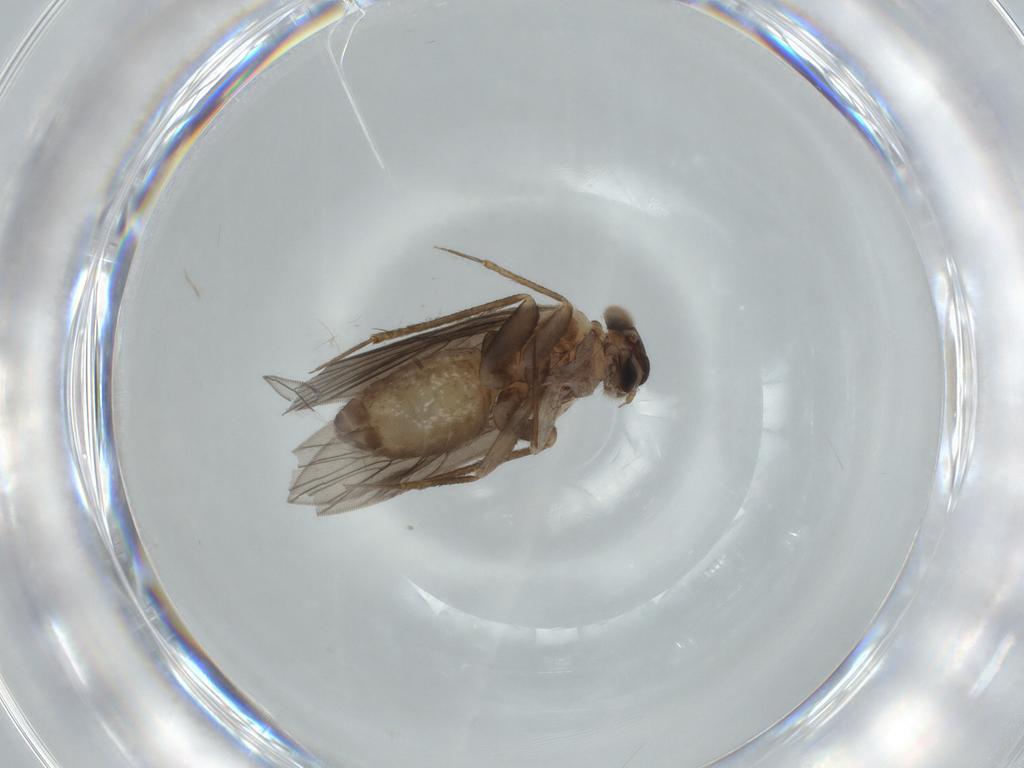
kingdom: Animalia
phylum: Arthropoda
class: Insecta
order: Psocodea
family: Lepidopsocidae
